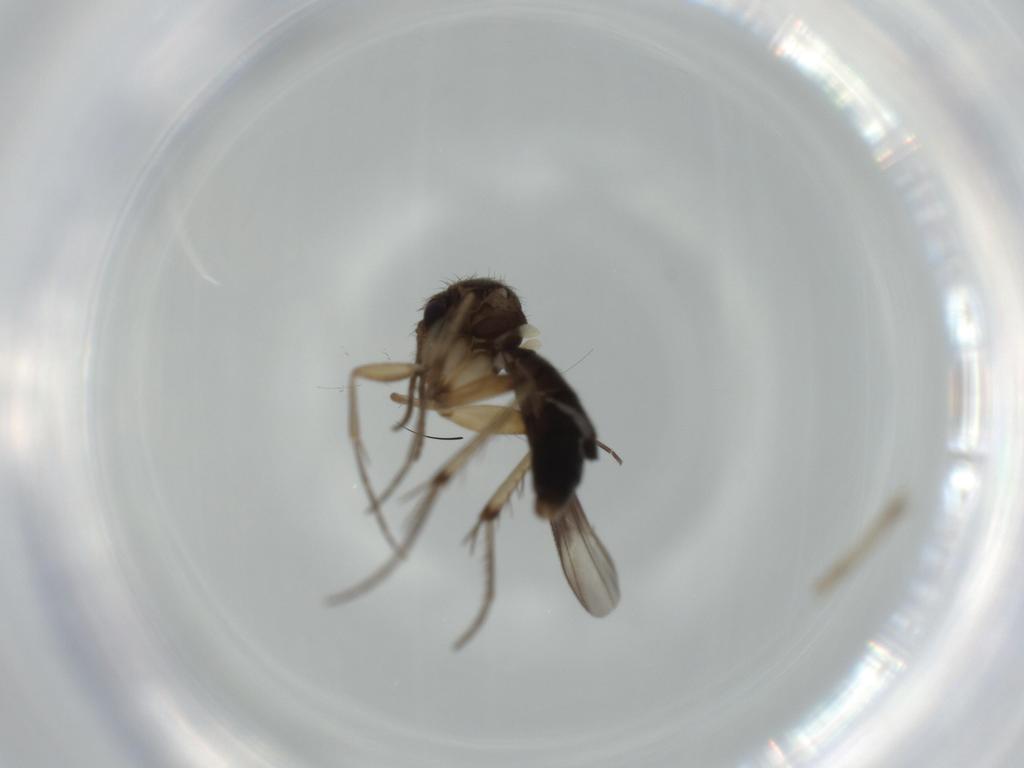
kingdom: Animalia
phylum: Arthropoda
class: Insecta
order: Diptera
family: Mycetophilidae
